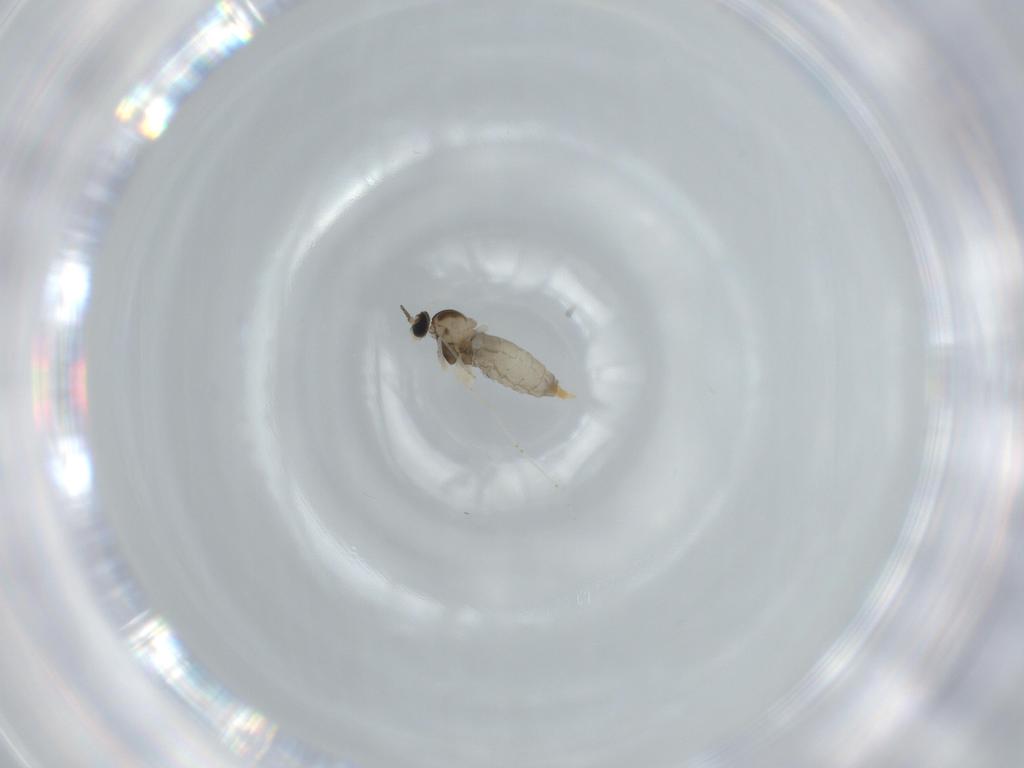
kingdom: Animalia
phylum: Arthropoda
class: Insecta
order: Diptera
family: Cecidomyiidae
